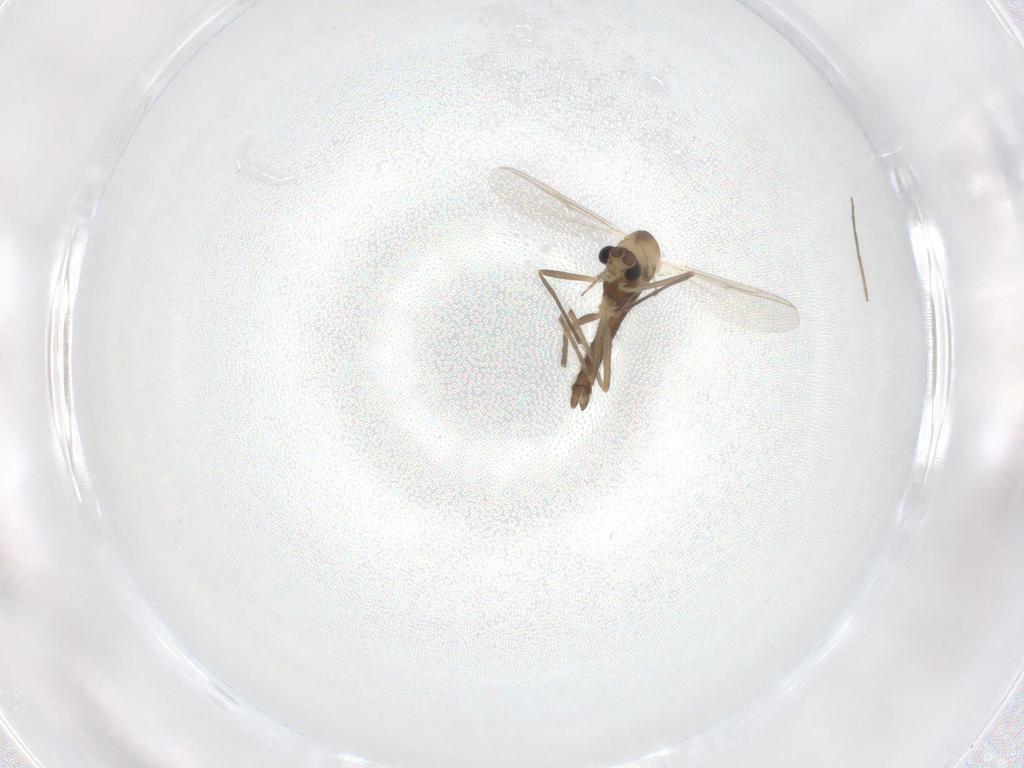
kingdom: Animalia
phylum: Arthropoda
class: Insecta
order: Diptera
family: Chironomidae
